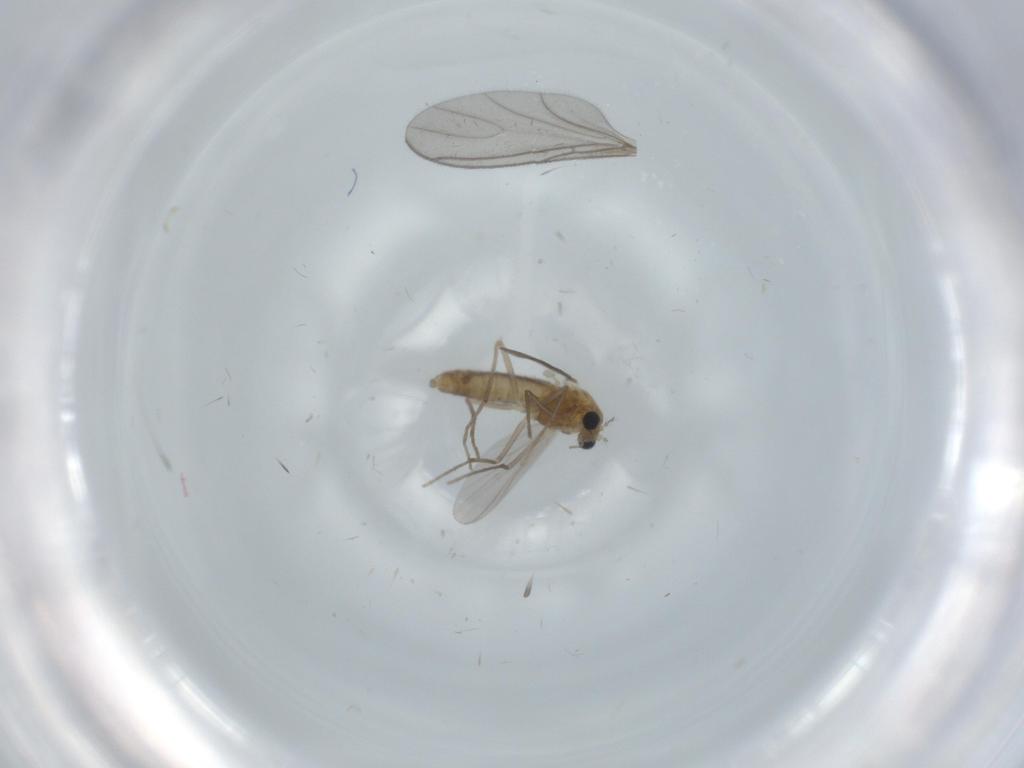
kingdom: Animalia
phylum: Arthropoda
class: Insecta
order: Diptera
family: Chironomidae
